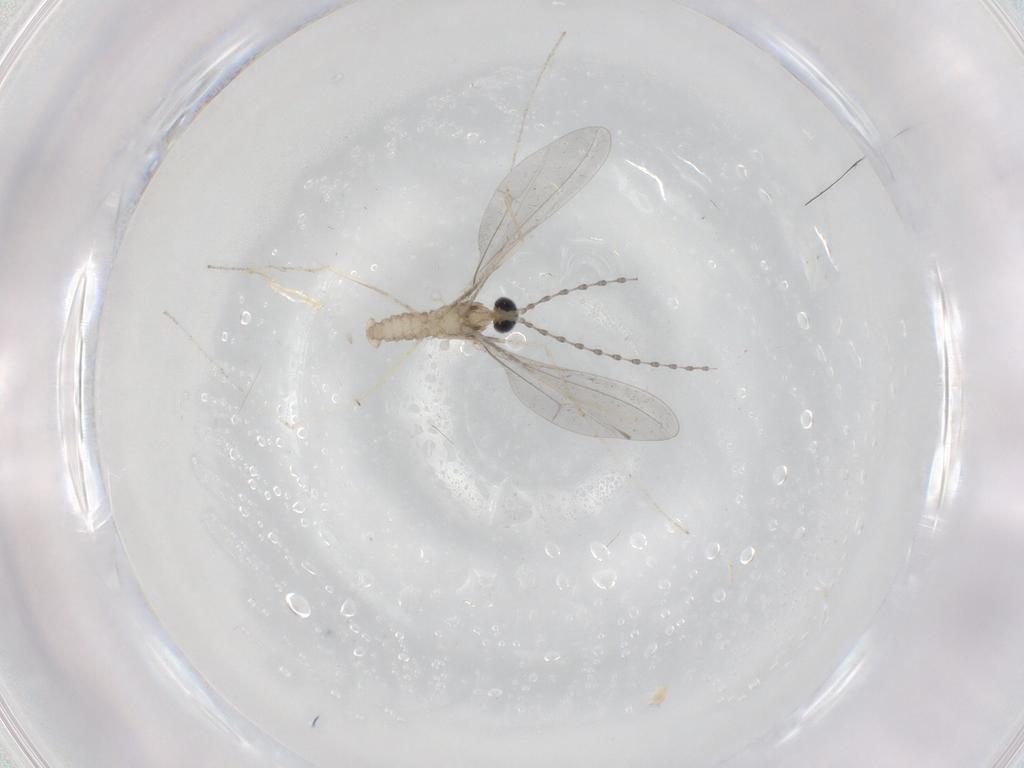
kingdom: Animalia
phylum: Arthropoda
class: Insecta
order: Diptera
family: Cecidomyiidae
